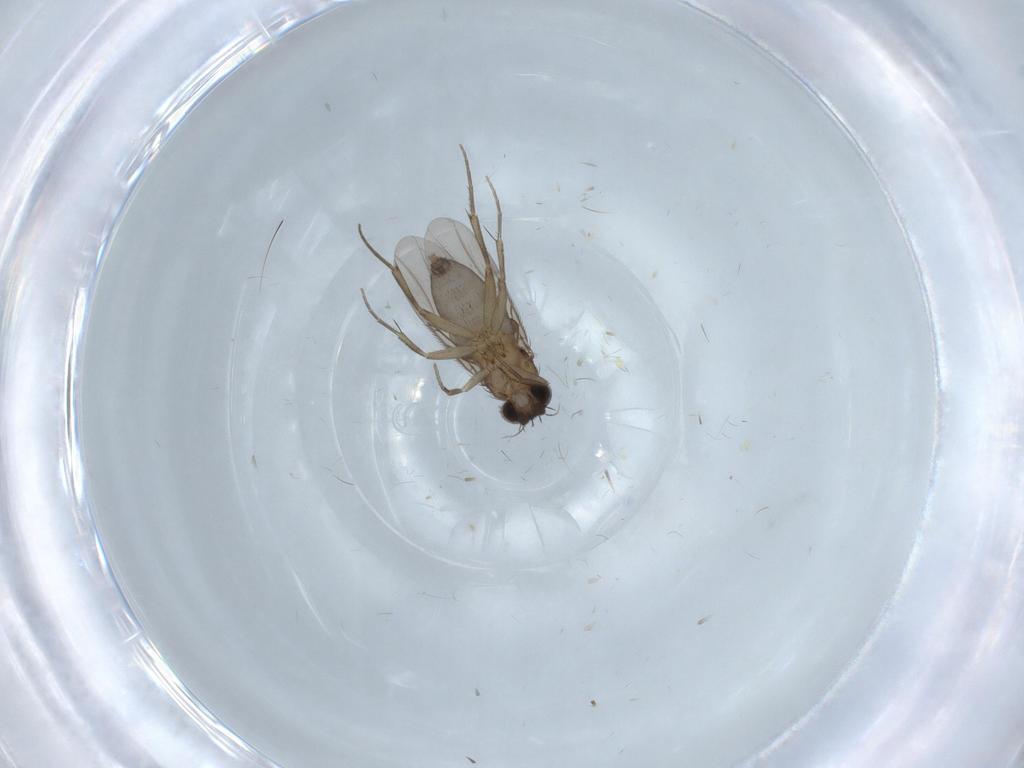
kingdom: Animalia
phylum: Arthropoda
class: Insecta
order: Diptera
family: Phoridae
